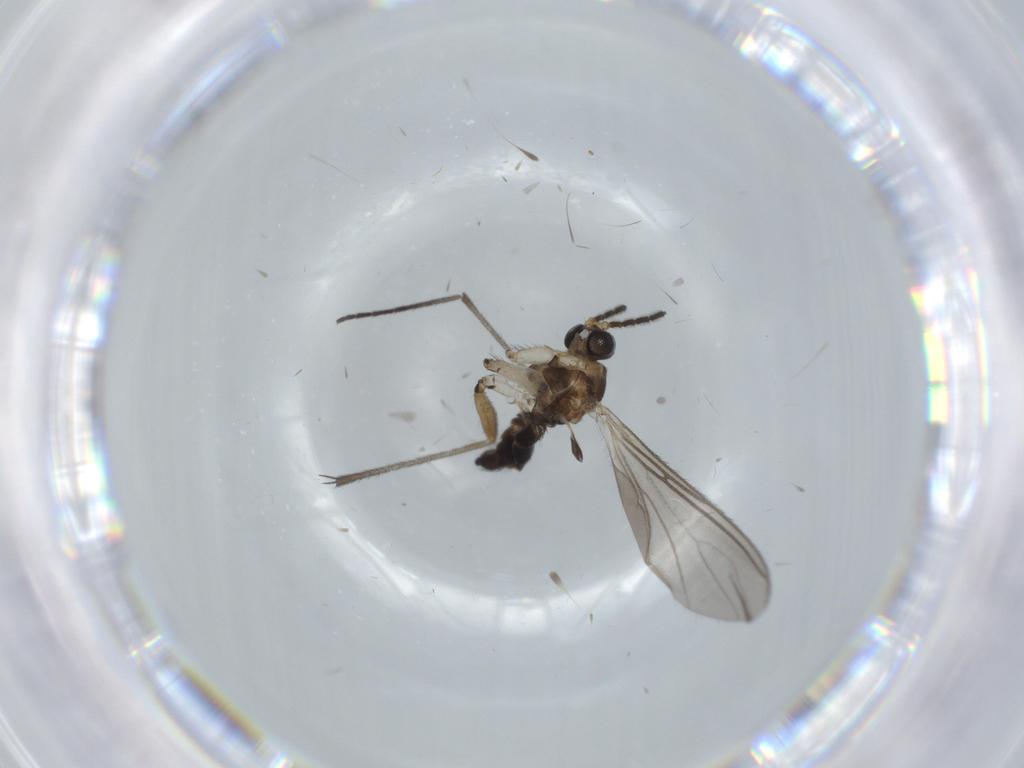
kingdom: Animalia
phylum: Arthropoda
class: Insecta
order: Diptera
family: Sciaridae
